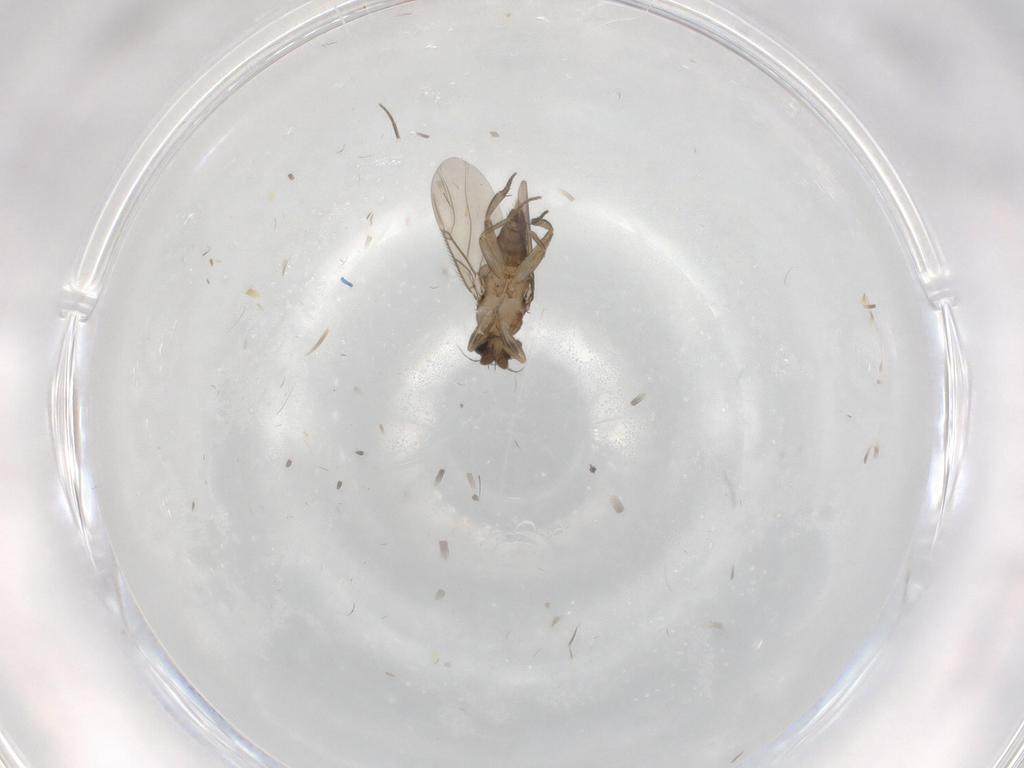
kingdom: Animalia
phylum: Arthropoda
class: Insecta
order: Diptera
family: Phoridae
